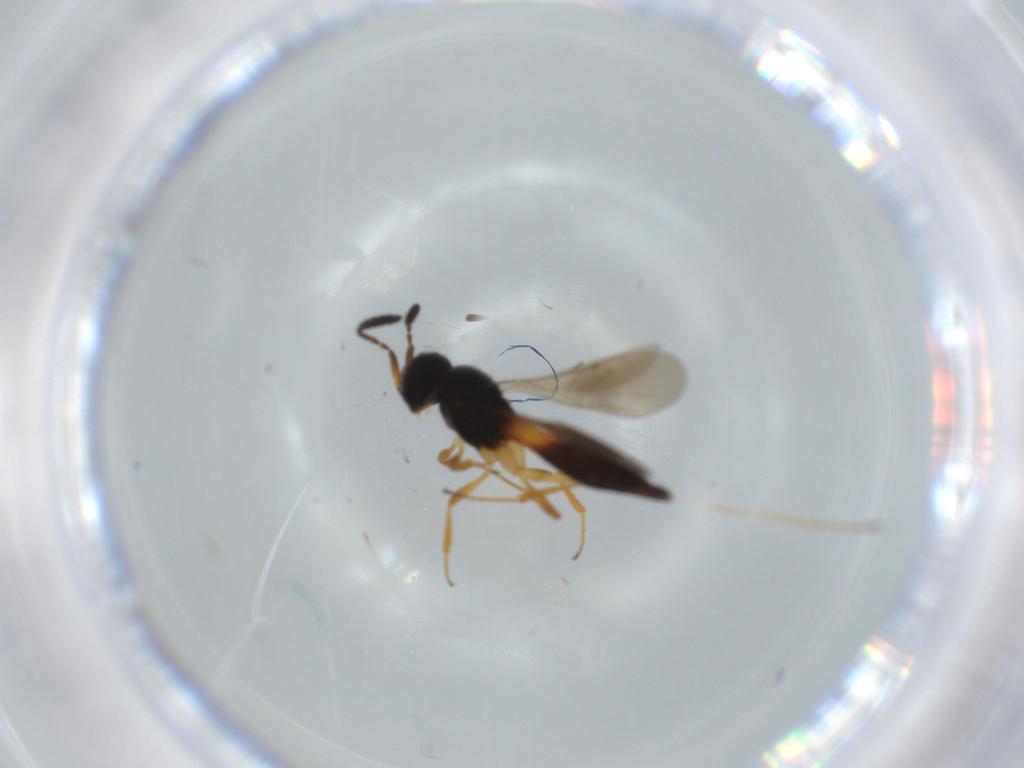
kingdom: Animalia
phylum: Arthropoda
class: Insecta
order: Hymenoptera
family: Scelionidae
